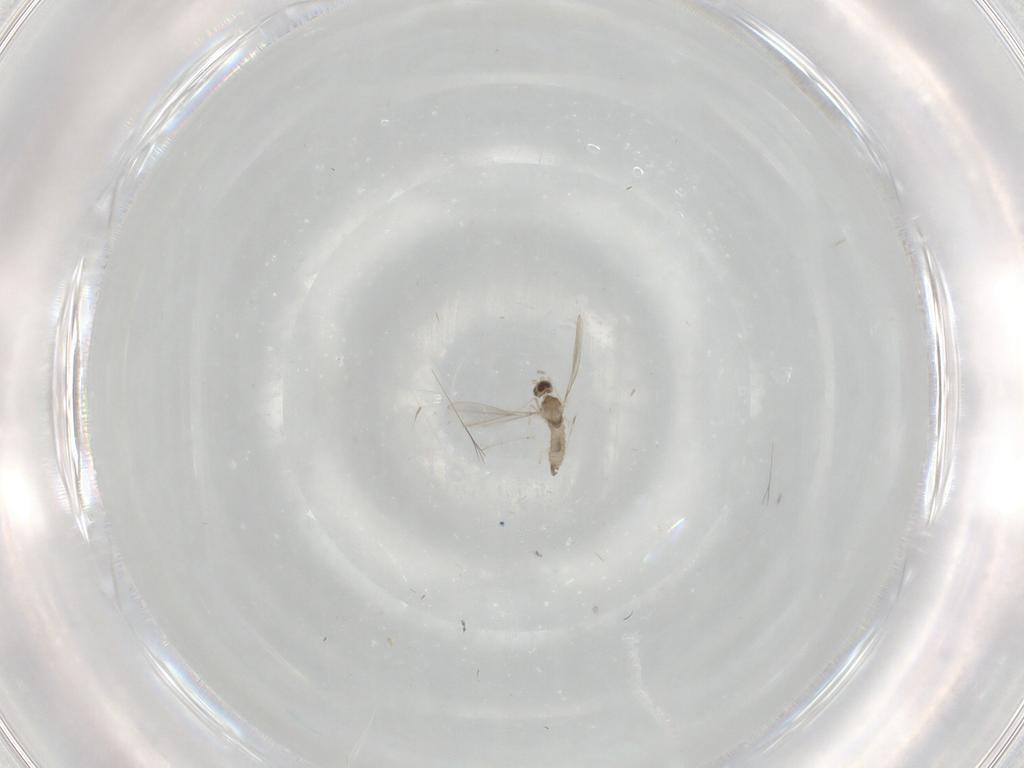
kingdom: Animalia
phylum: Arthropoda
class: Insecta
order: Diptera
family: Cecidomyiidae
